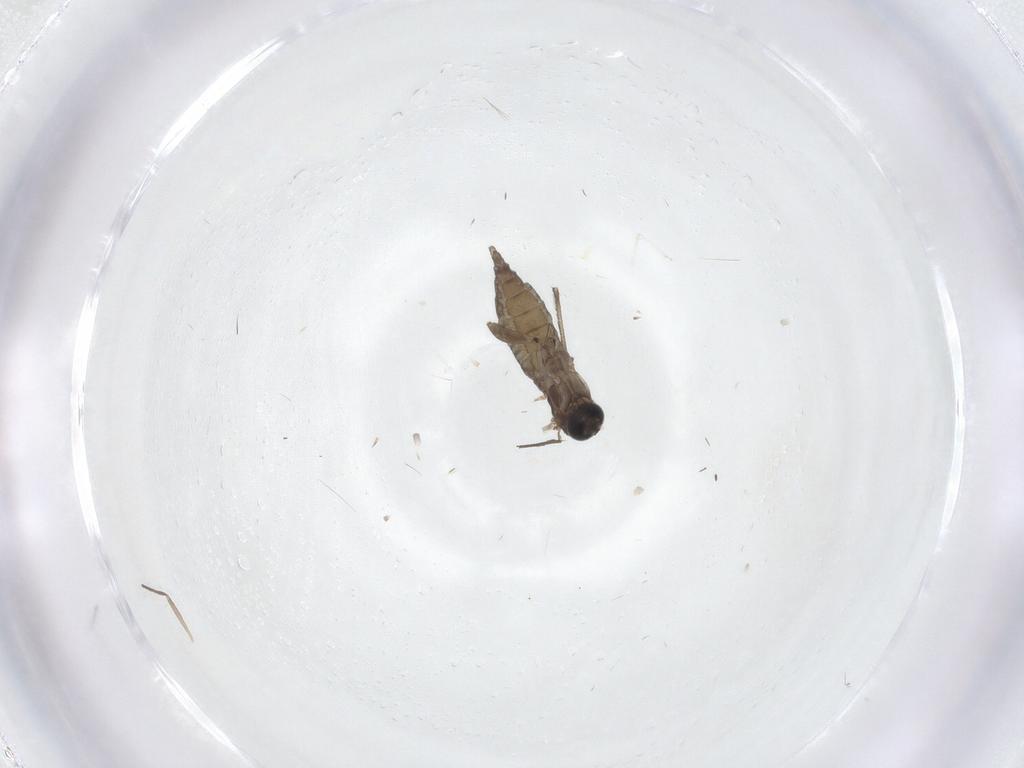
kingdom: Animalia
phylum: Arthropoda
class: Insecta
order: Diptera
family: Sciaridae
